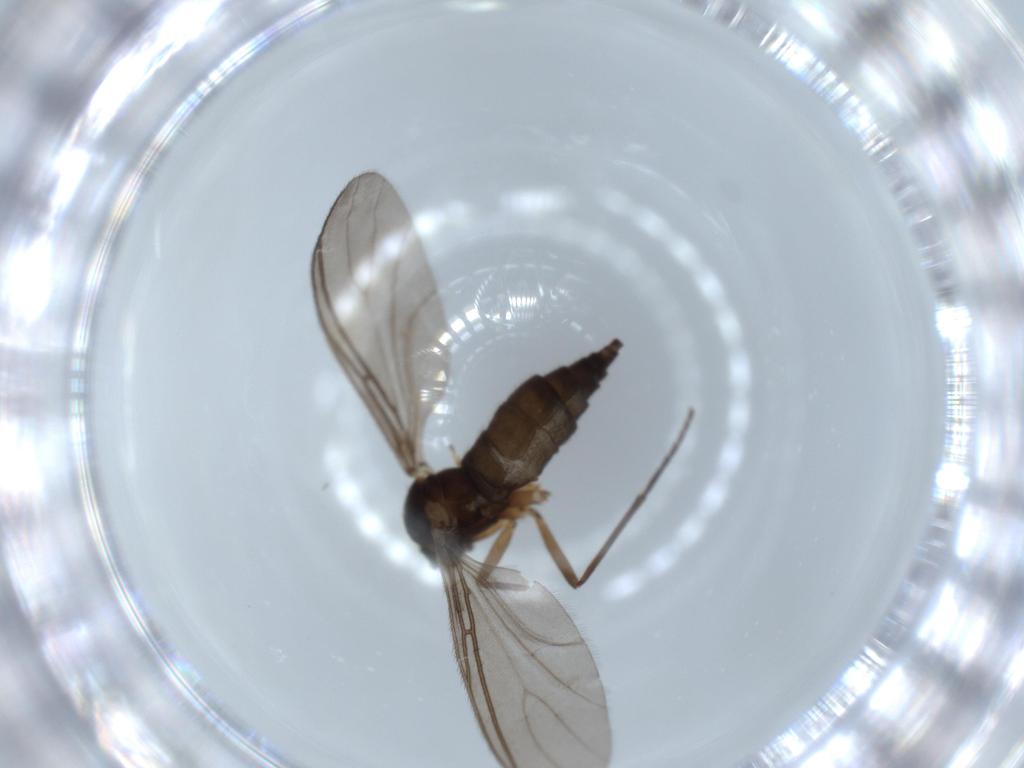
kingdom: Animalia
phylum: Arthropoda
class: Insecta
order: Diptera
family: Sciaridae
